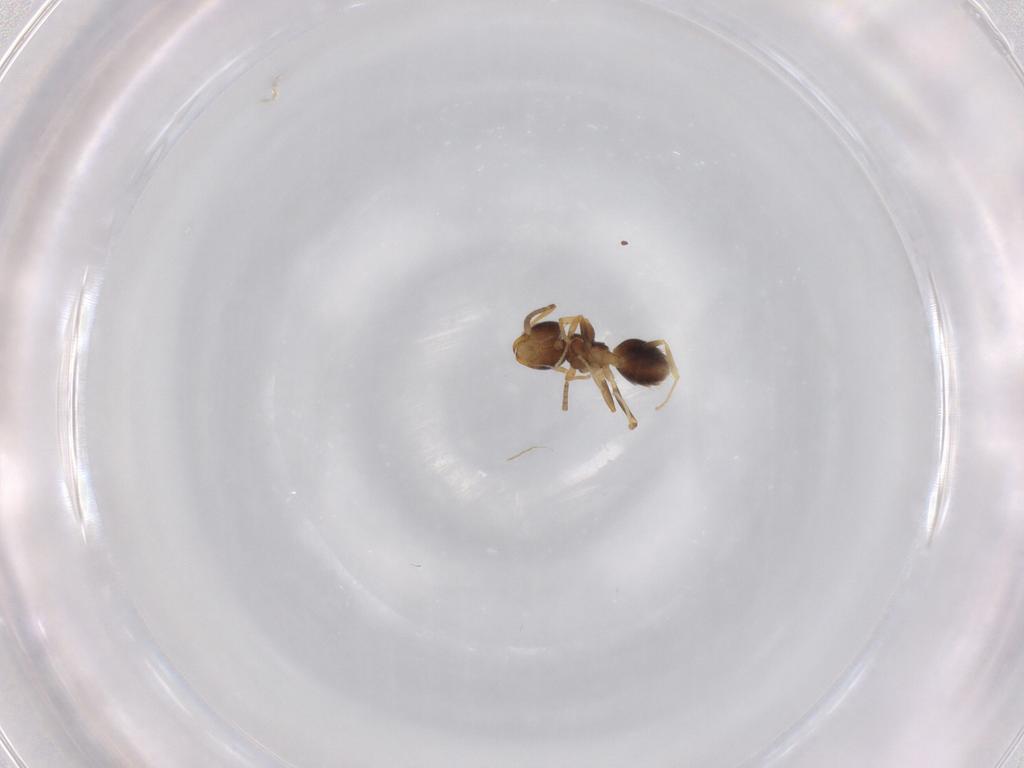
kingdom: Animalia
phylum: Arthropoda
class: Insecta
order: Hymenoptera
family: Formicidae
